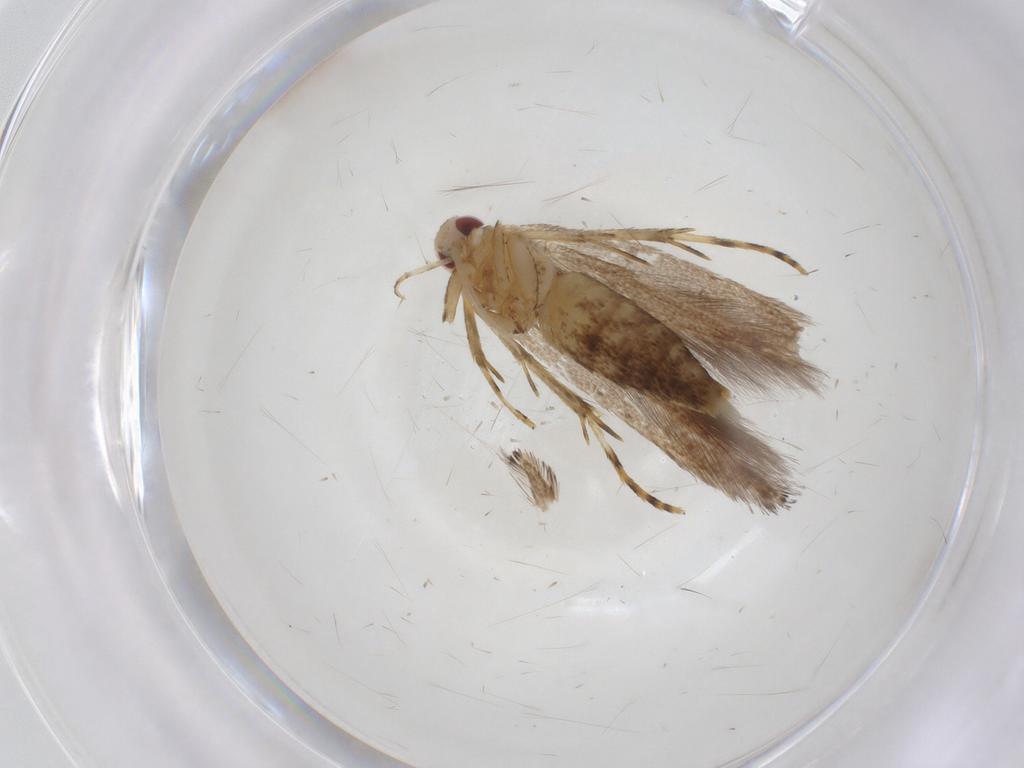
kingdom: Animalia
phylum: Arthropoda
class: Insecta
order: Lepidoptera
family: Cosmopterigidae
